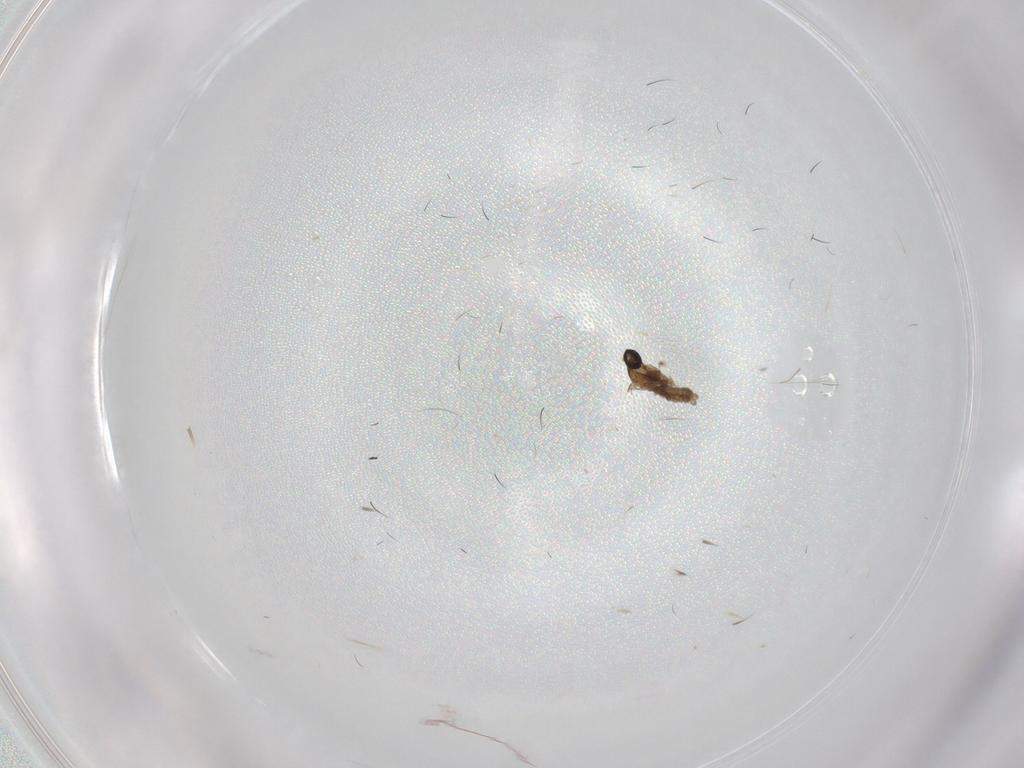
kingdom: Animalia
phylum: Arthropoda
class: Insecta
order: Diptera
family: Tabanidae
